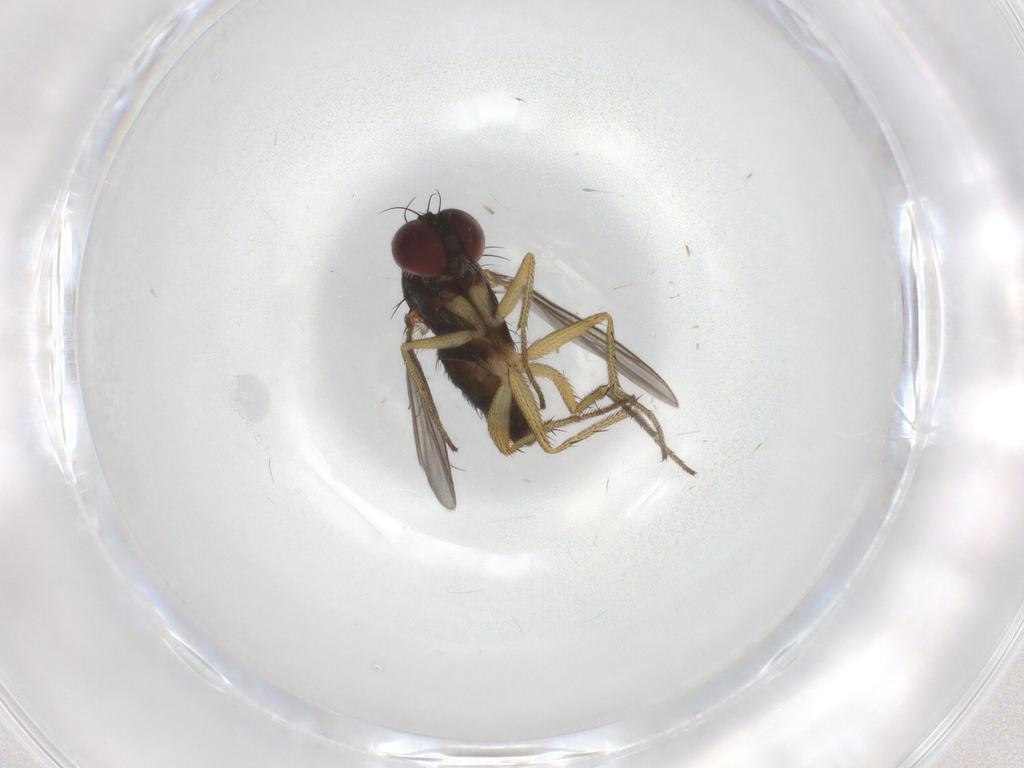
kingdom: Animalia
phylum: Arthropoda
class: Insecta
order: Diptera
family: Dolichopodidae
